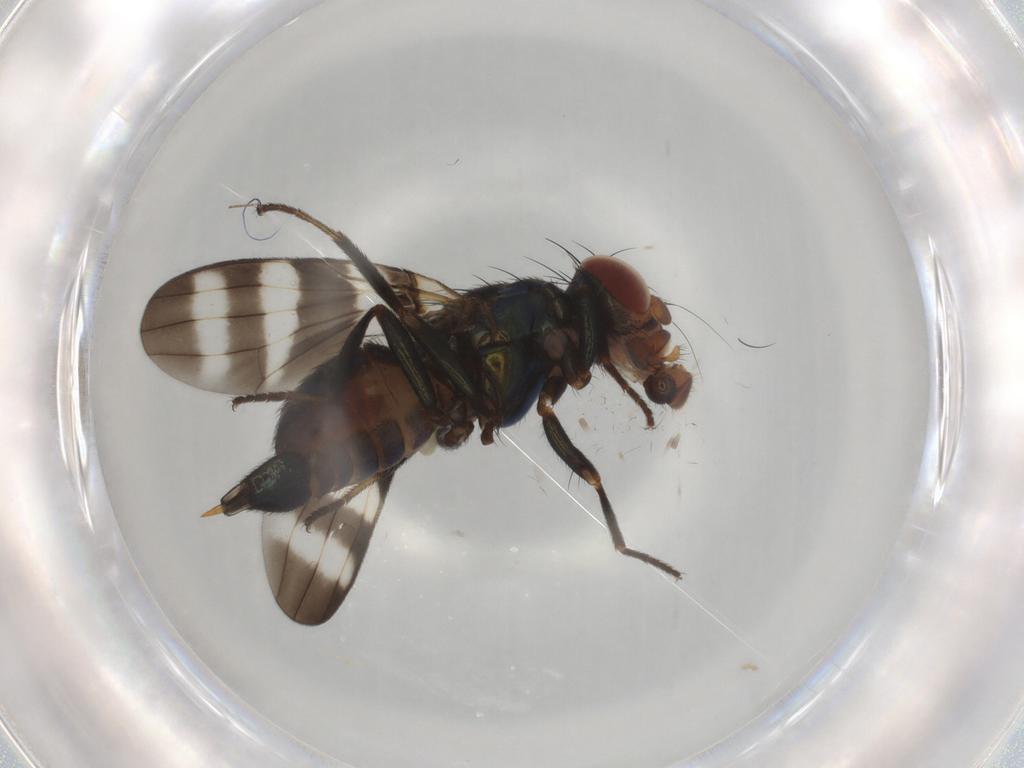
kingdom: Animalia
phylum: Arthropoda
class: Insecta
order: Diptera
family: Ulidiidae
